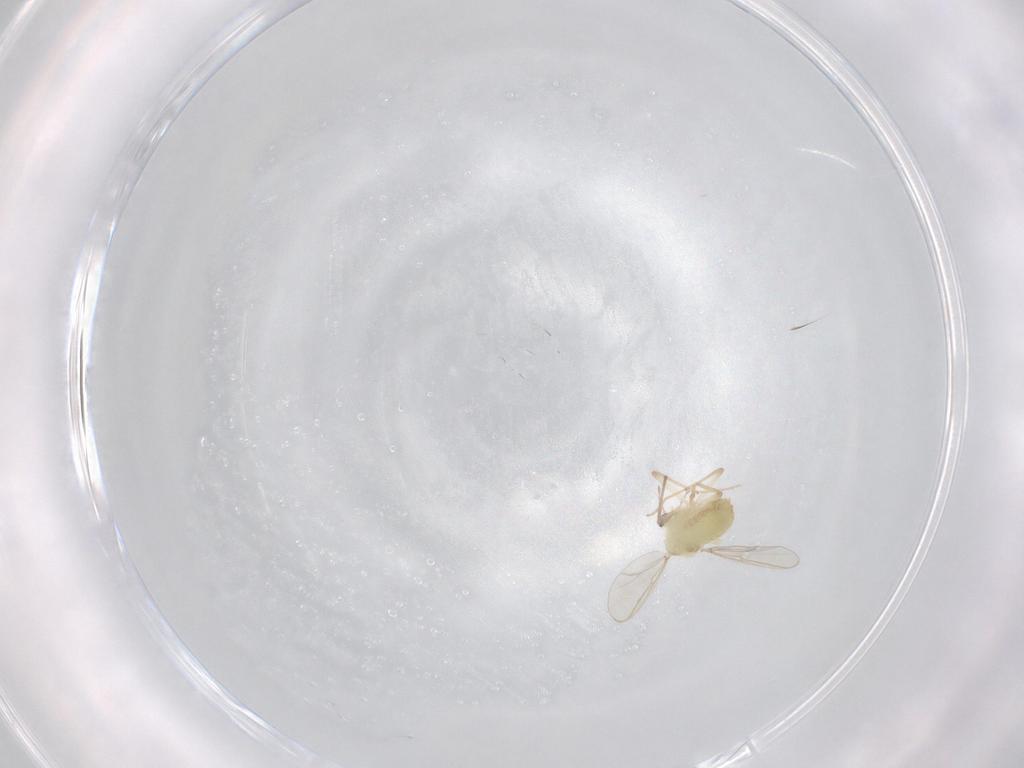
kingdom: Animalia
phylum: Arthropoda
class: Insecta
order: Diptera
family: Chironomidae
